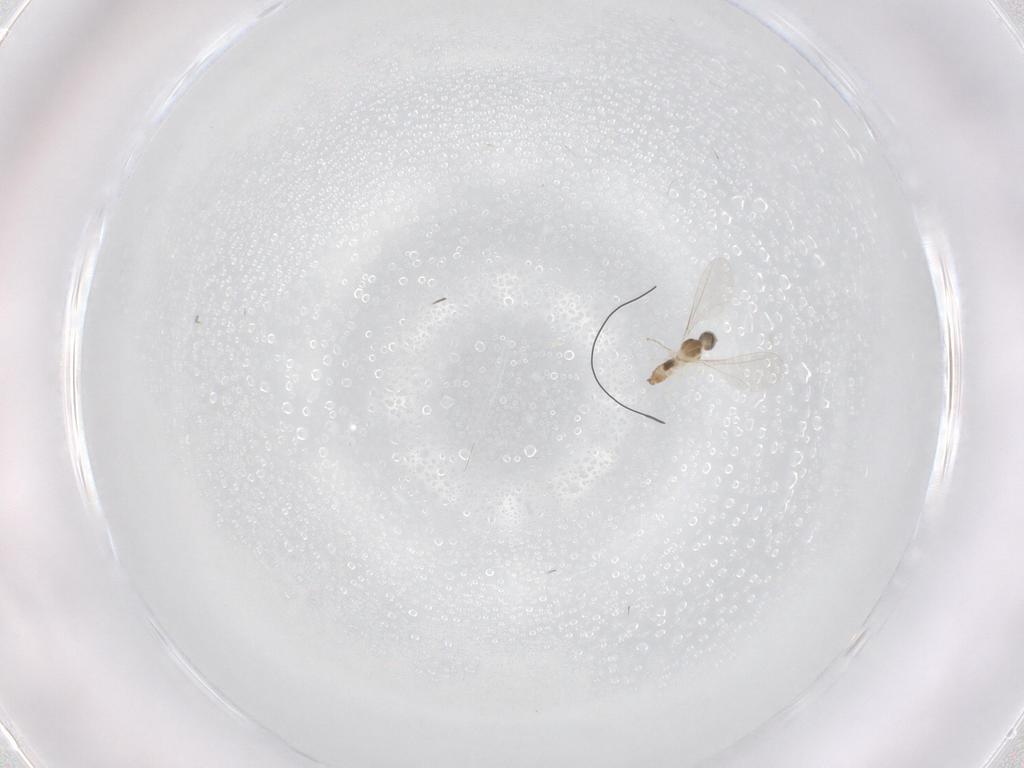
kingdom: Animalia
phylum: Arthropoda
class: Insecta
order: Diptera
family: Cecidomyiidae
